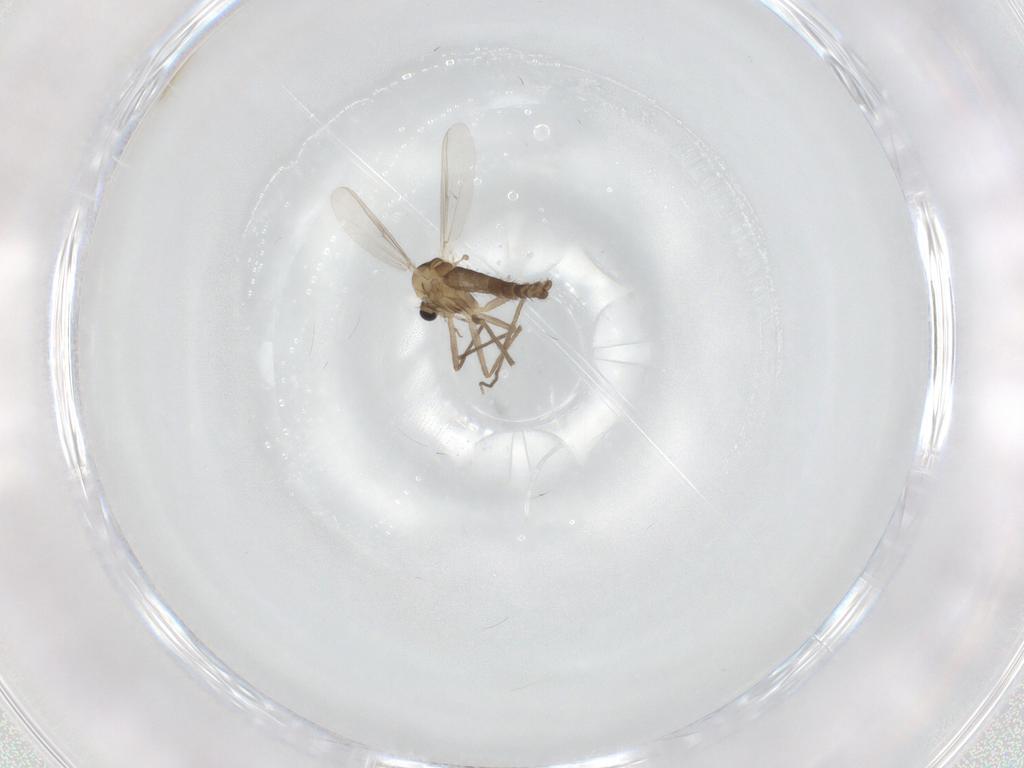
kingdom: Animalia
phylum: Arthropoda
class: Insecta
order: Diptera
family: Chironomidae
